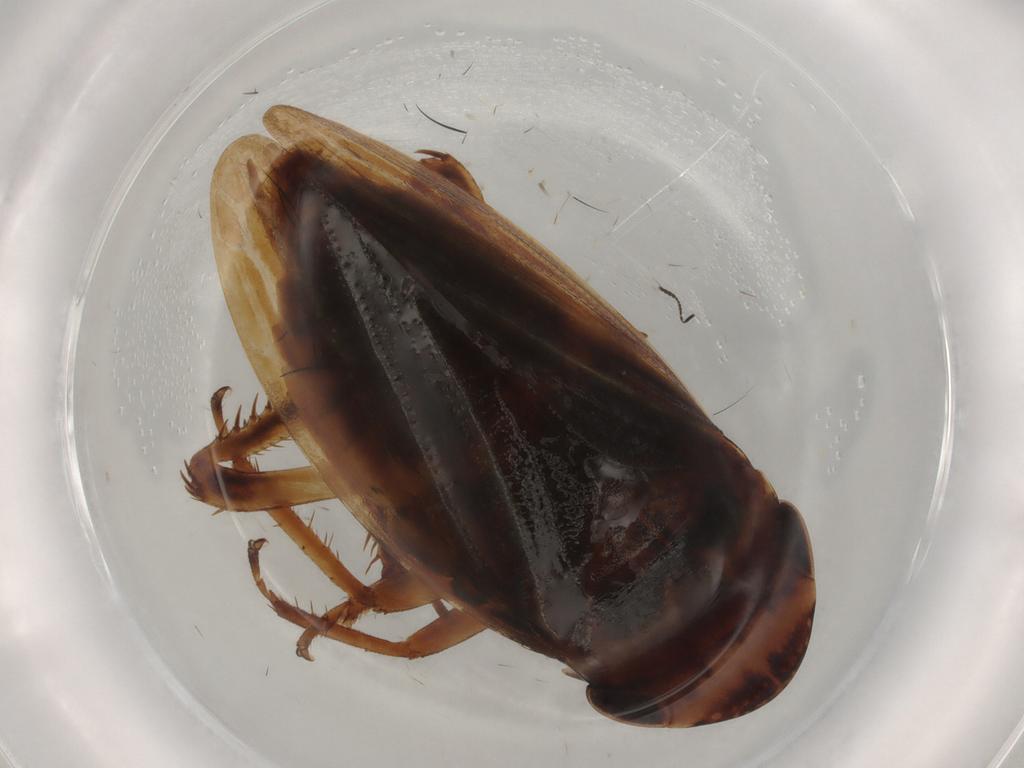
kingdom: Animalia
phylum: Arthropoda
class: Insecta
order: Hemiptera
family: Cicadellidae
